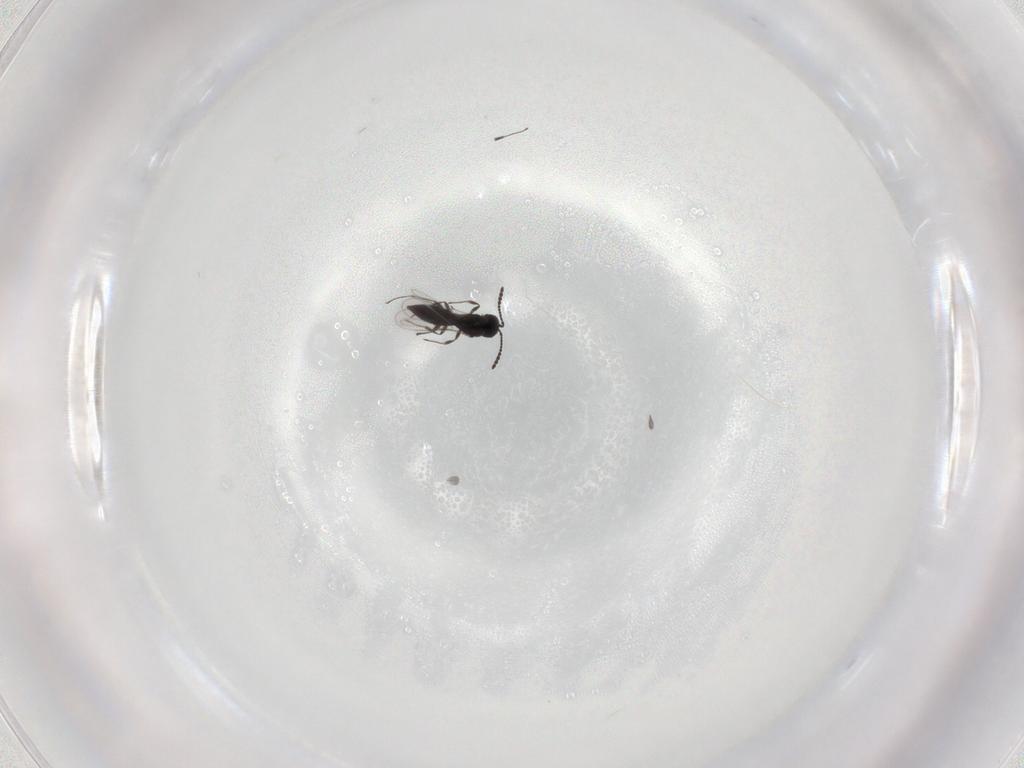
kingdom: Animalia
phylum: Arthropoda
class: Insecta
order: Hymenoptera
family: Scelionidae
